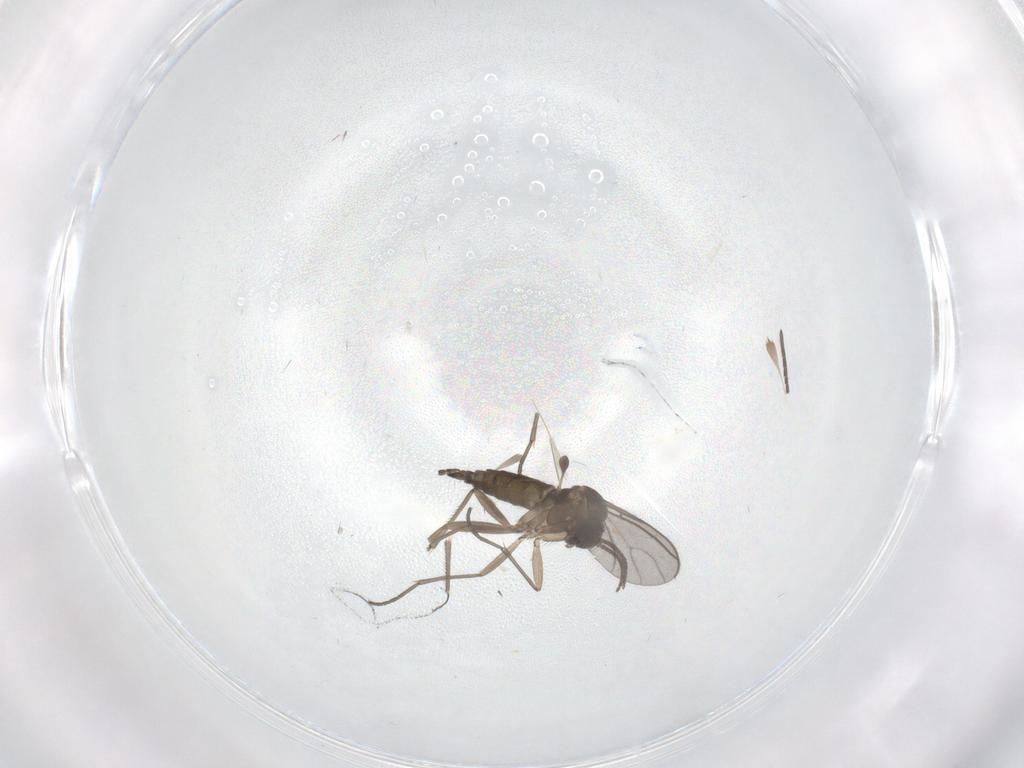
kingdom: Animalia
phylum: Arthropoda
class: Insecta
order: Diptera
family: Sciaridae
